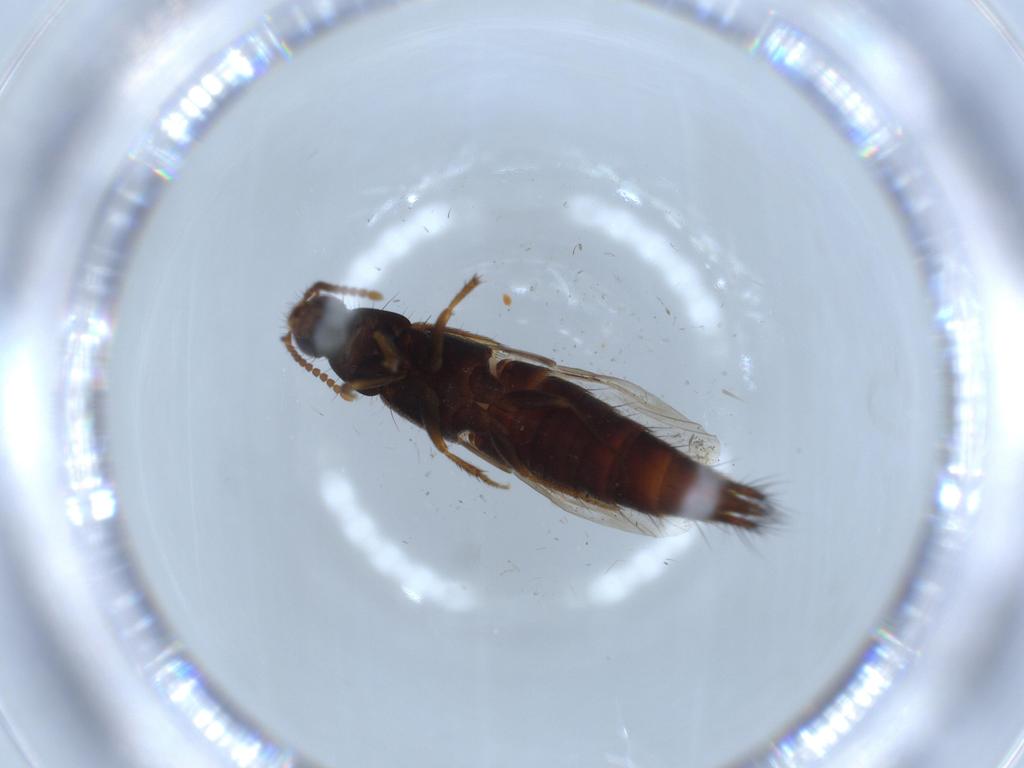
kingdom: Animalia
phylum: Arthropoda
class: Insecta
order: Coleoptera
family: Staphylinidae
